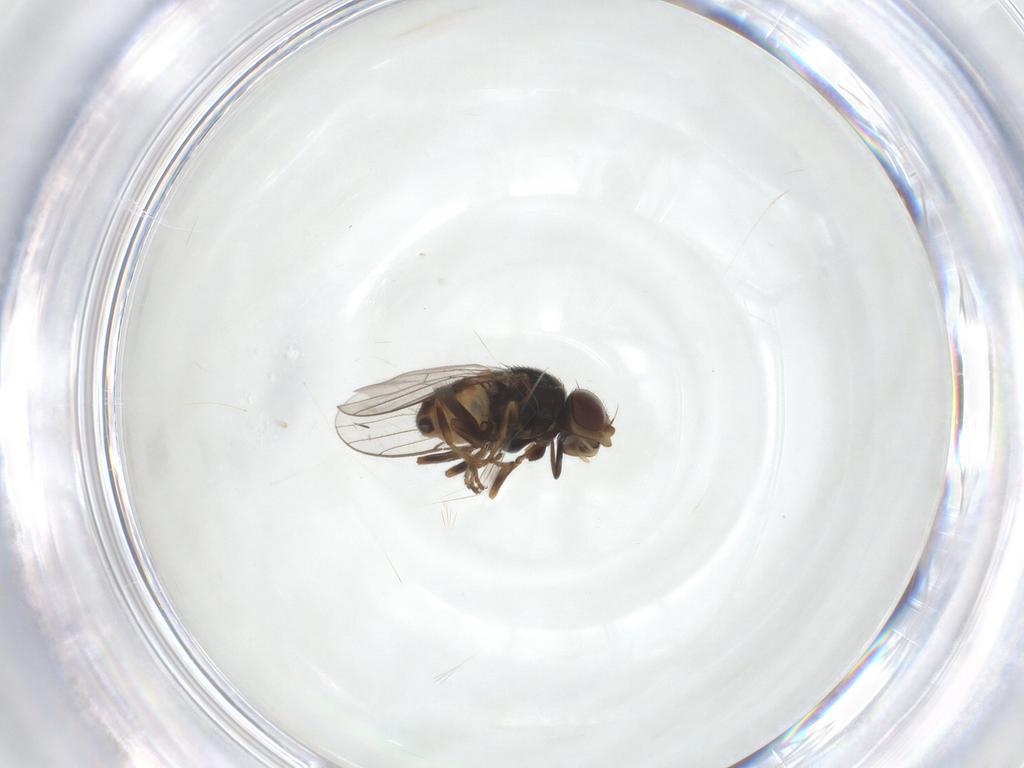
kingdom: Animalia
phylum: Arthropoda
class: Insecta
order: Diptera
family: Chloropidae
